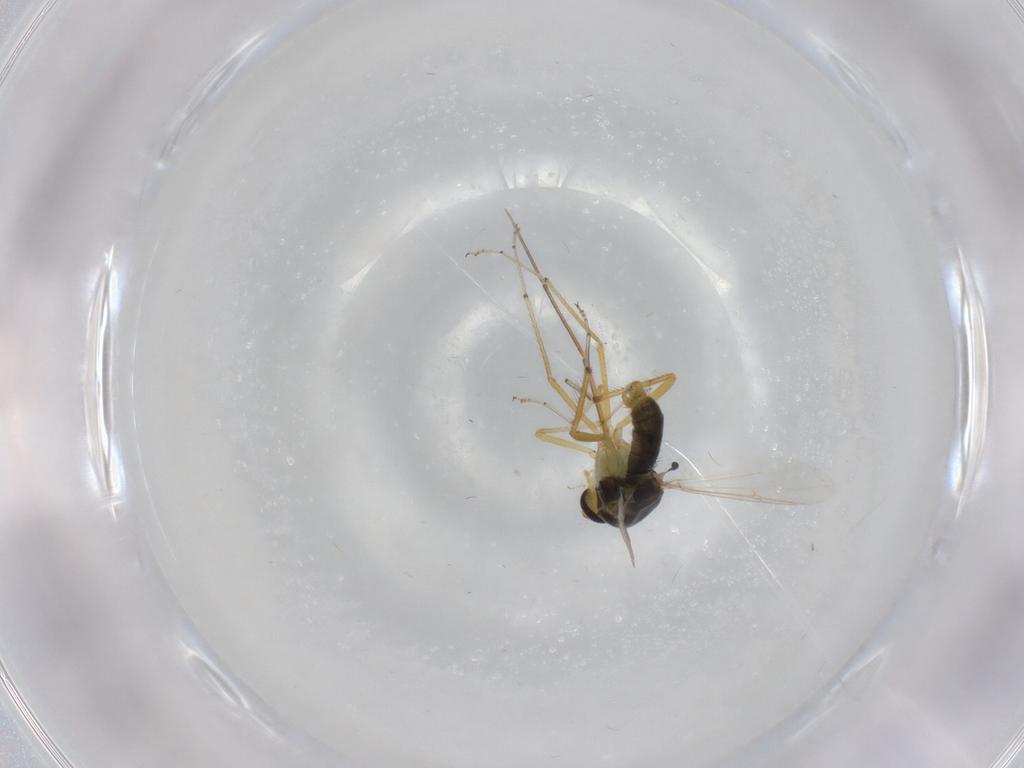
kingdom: Animalia
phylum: Arthropoda
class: Insecta
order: Diptera
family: Ceratopogonidae
